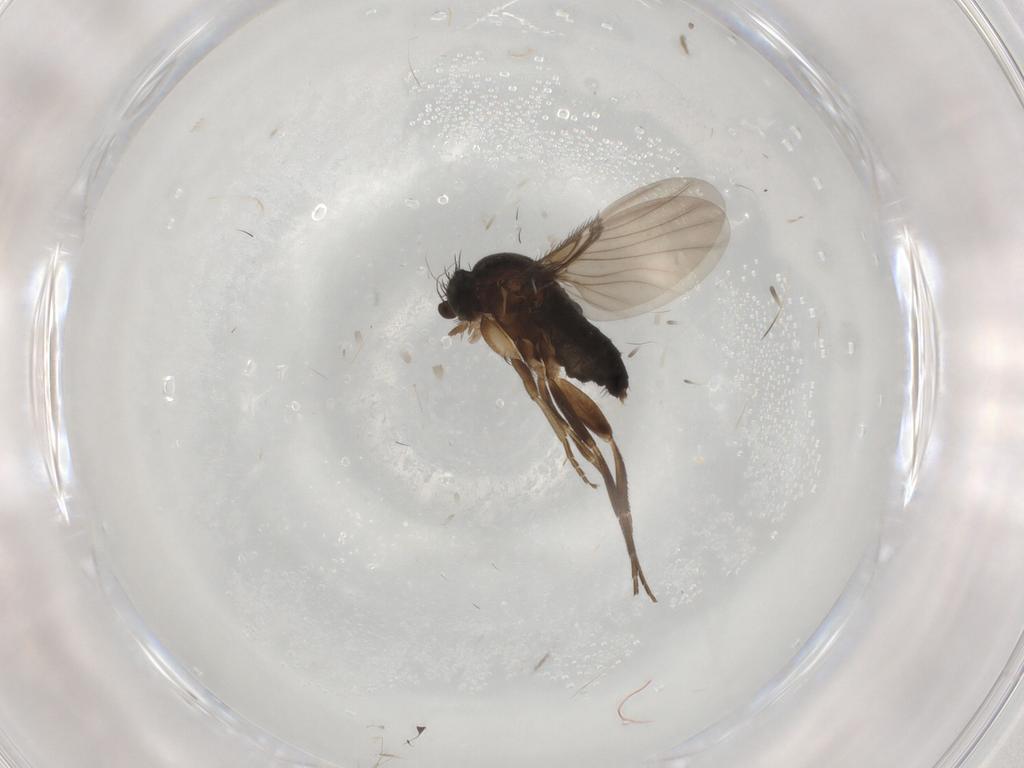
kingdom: Animalia
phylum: Arthropoda
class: Insecta
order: Diptera
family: Phoridae
